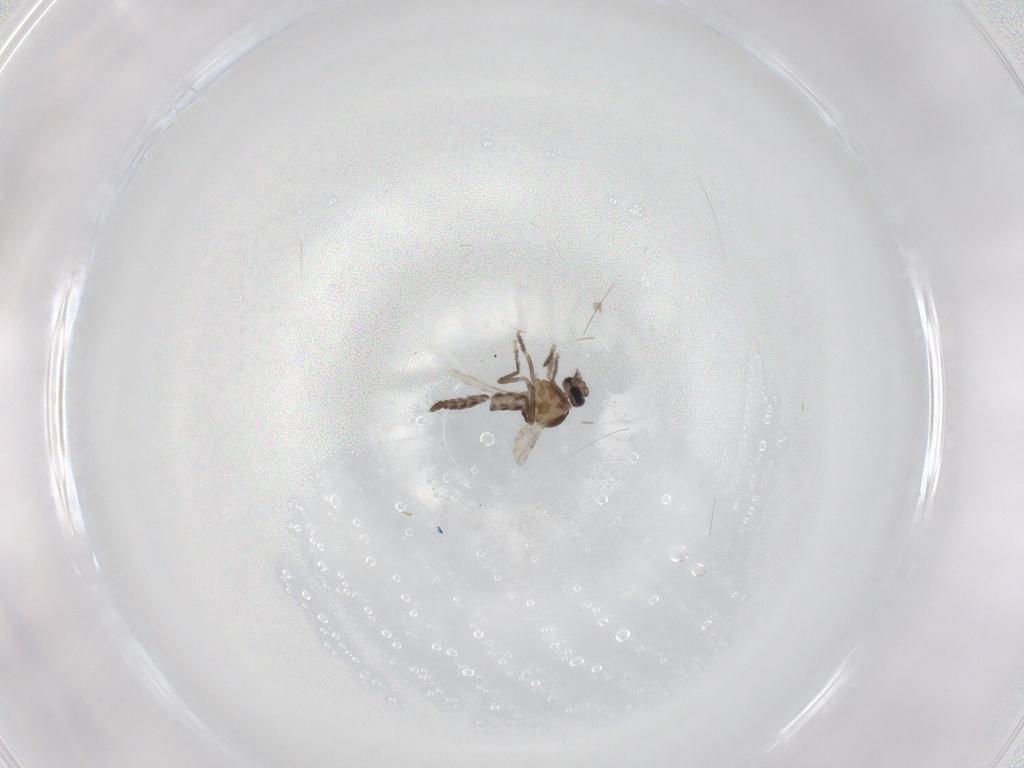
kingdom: Animalia
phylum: Arthropoda
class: Insecta
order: Diptera
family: Ceratopogonidae
